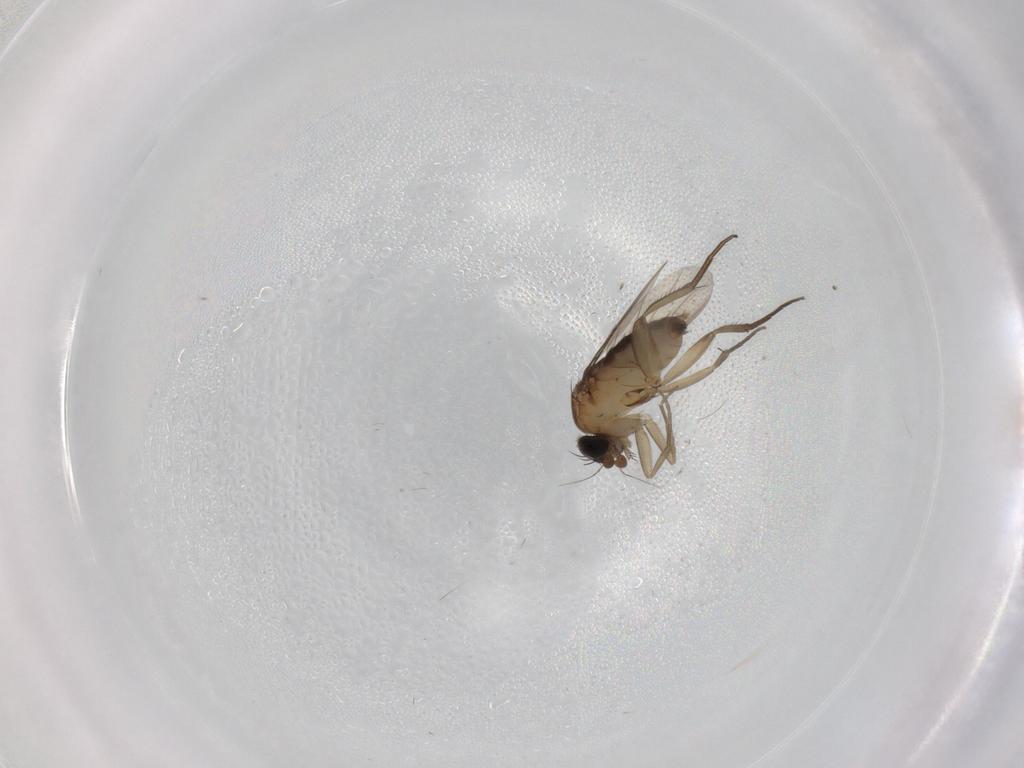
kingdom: Animalia
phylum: Arthropoda
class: Insecta
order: Diptera
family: Phoridae
